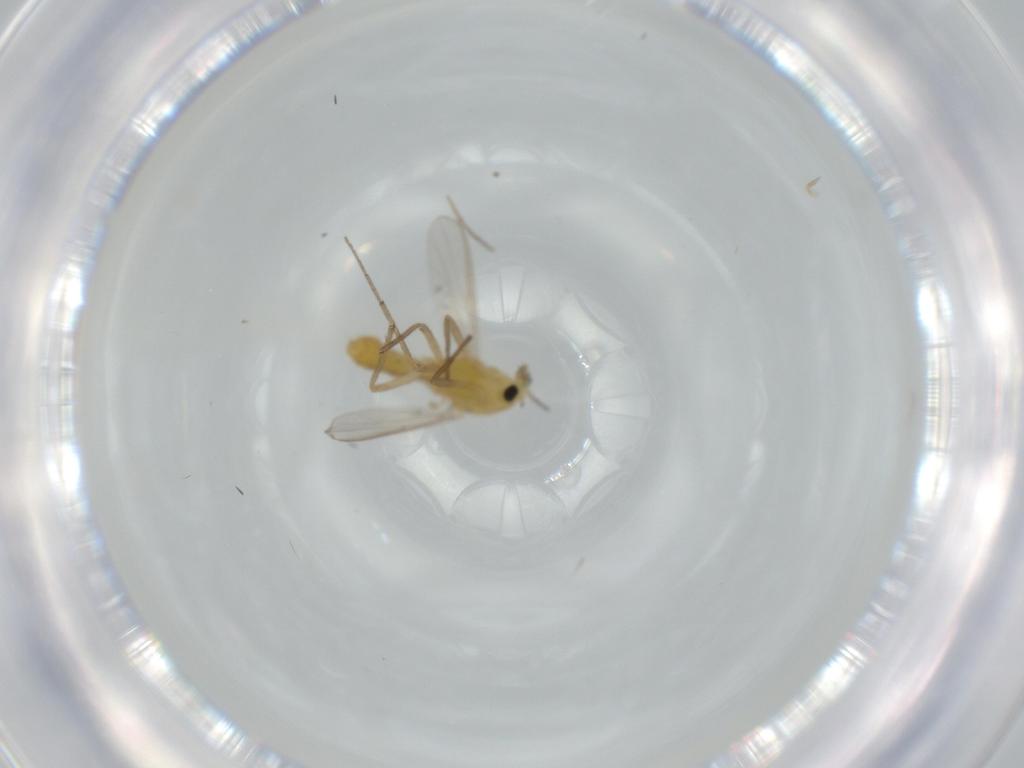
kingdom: Animalia
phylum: Arthropoda
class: Insecta
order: Diptera
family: Chironomidae
